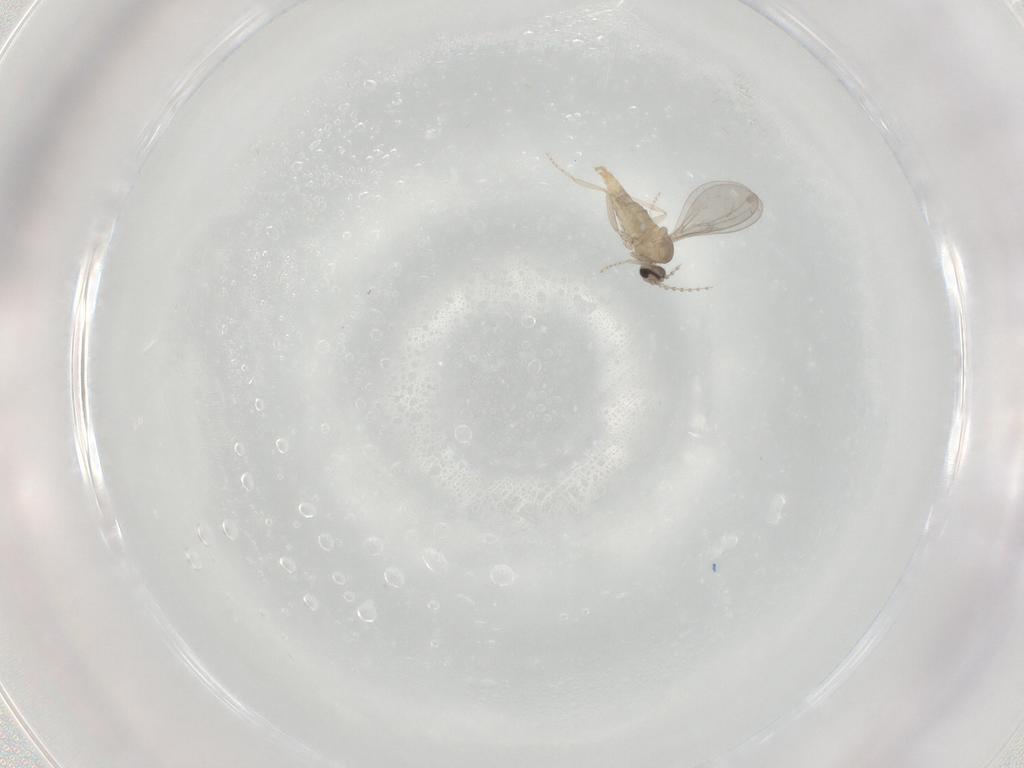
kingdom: Animalia
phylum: Arthropoda
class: Insecta
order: Diptera
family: Cecidomyiidae
